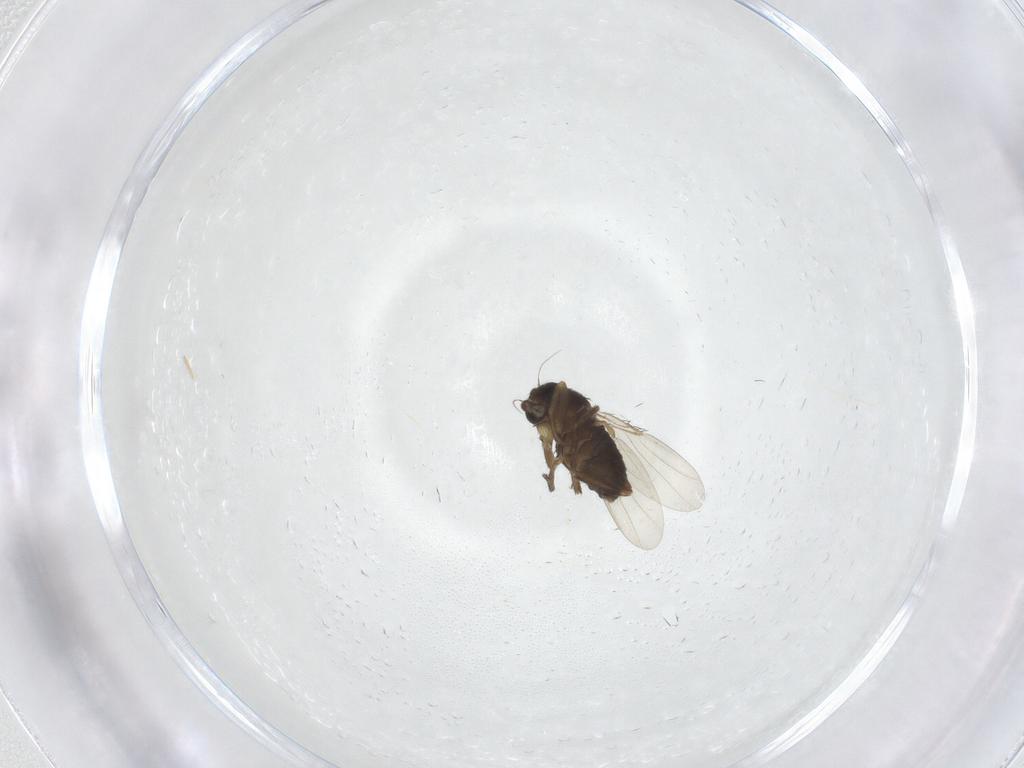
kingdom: Animalia
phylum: Arthropoda
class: Insecta
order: Diptera
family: Phoridae
